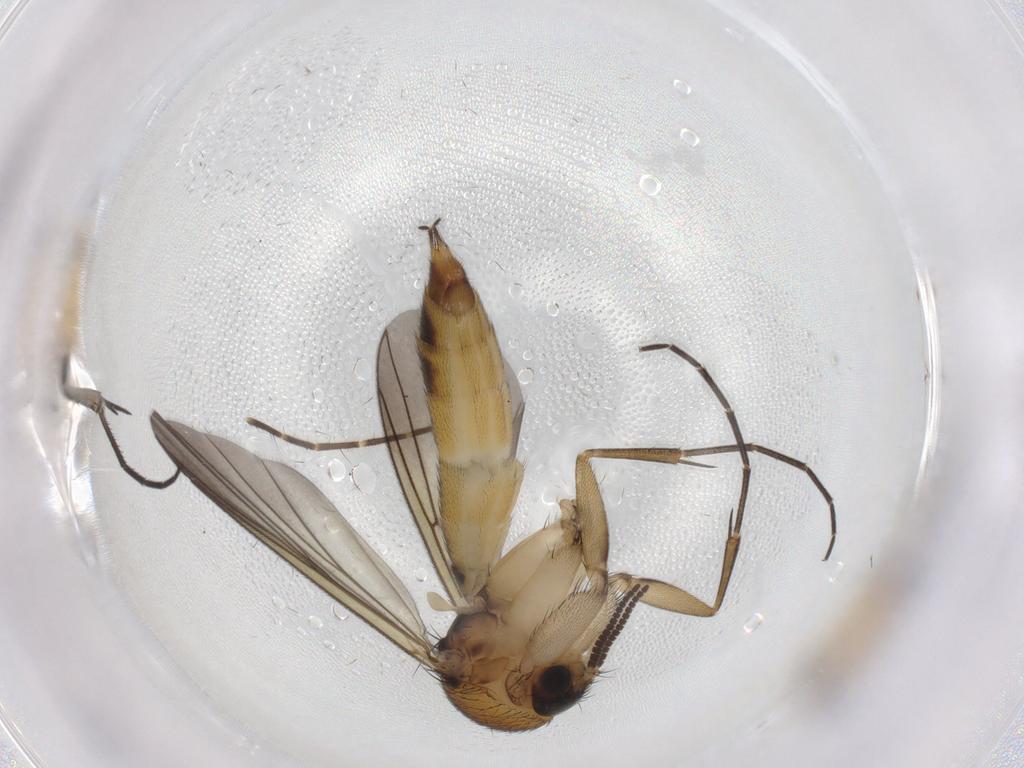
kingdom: Animalia
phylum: Arthropoda
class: Insecta
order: Diptera
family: Limoniidae
